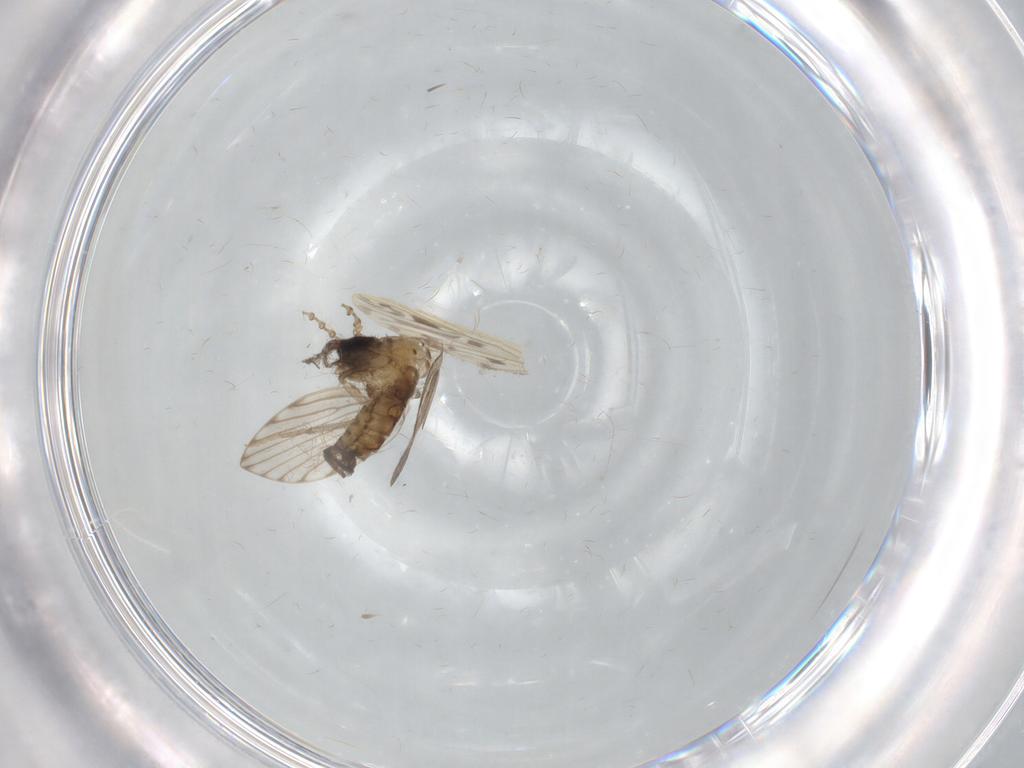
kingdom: Animalia
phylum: Arthropoda
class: Insecta
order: Diptera
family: Psychodidae
